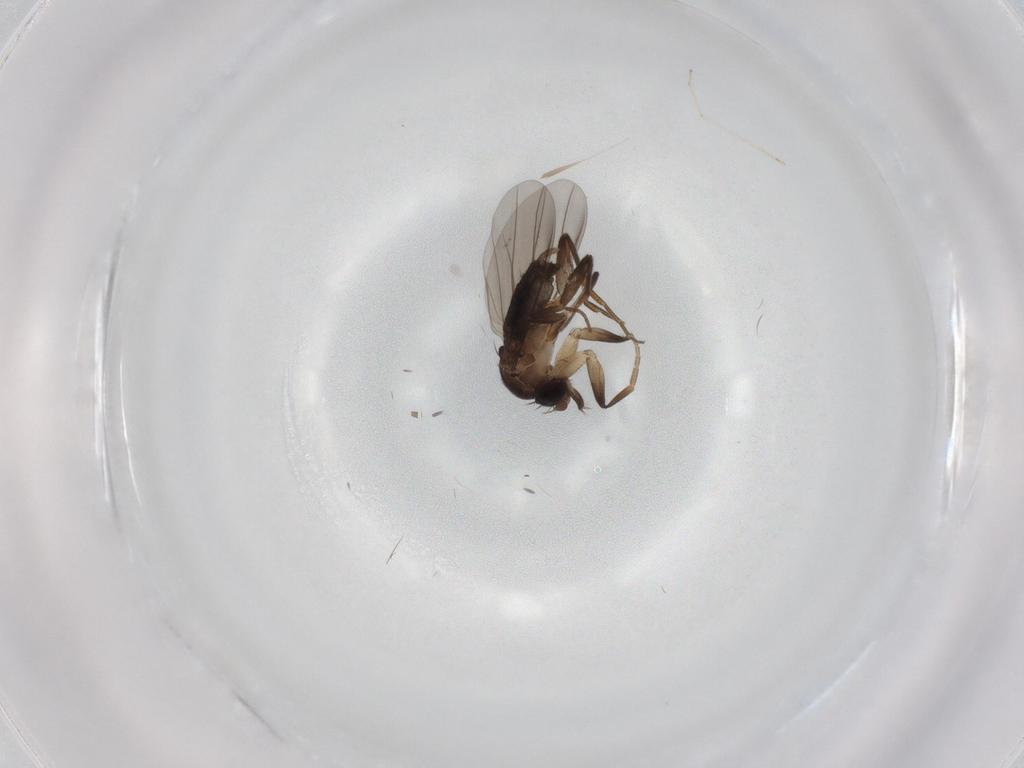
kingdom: Animalia
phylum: Arthropoda
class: Insecta
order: Diptera
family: Phoridae
